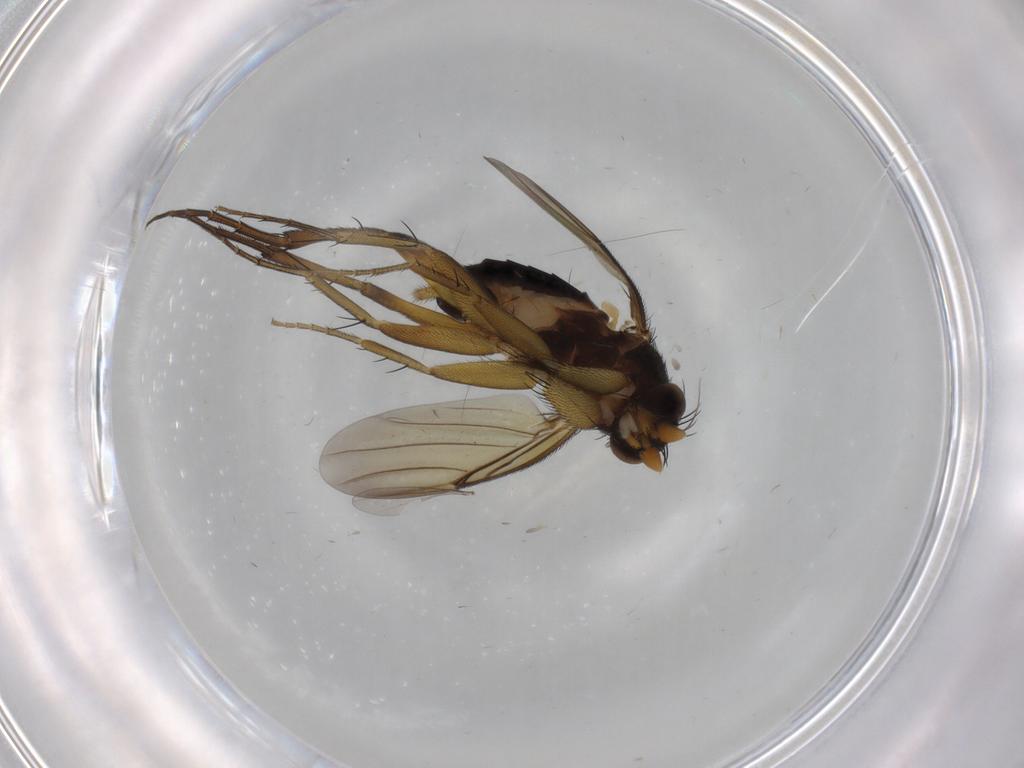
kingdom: Animalia
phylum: Arthropoda
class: Insecta
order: Diptera
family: Phoridae
